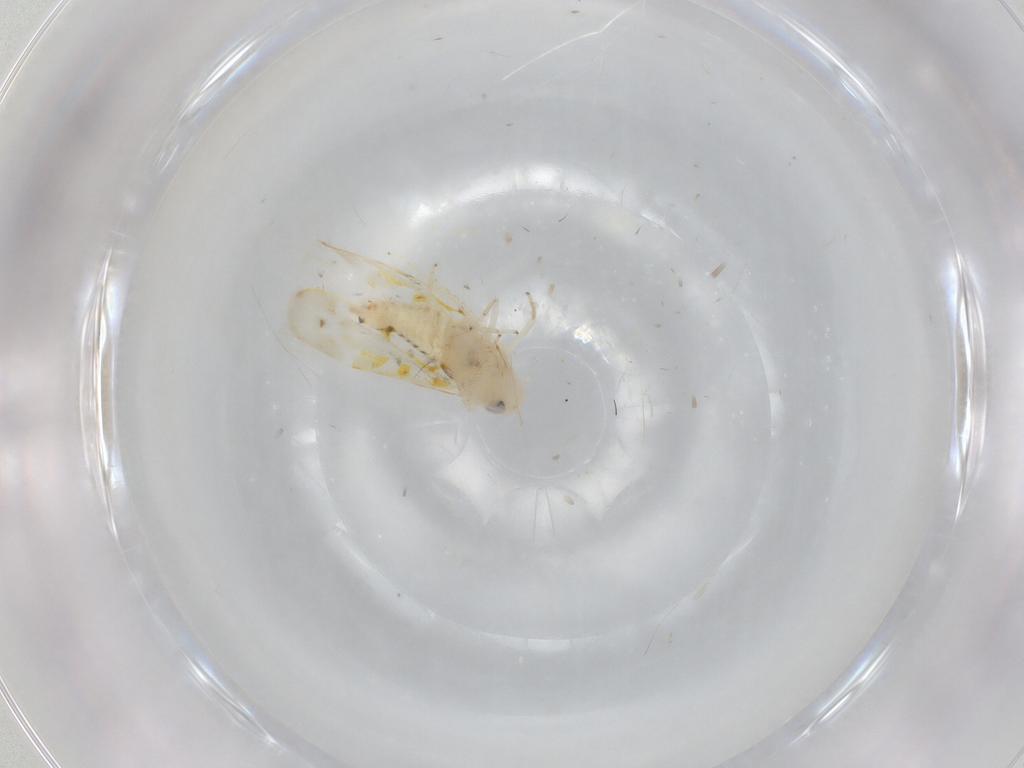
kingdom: Animalia
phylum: Arthropoda
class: Insecta
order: Hemiptera
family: Cicadellidae
